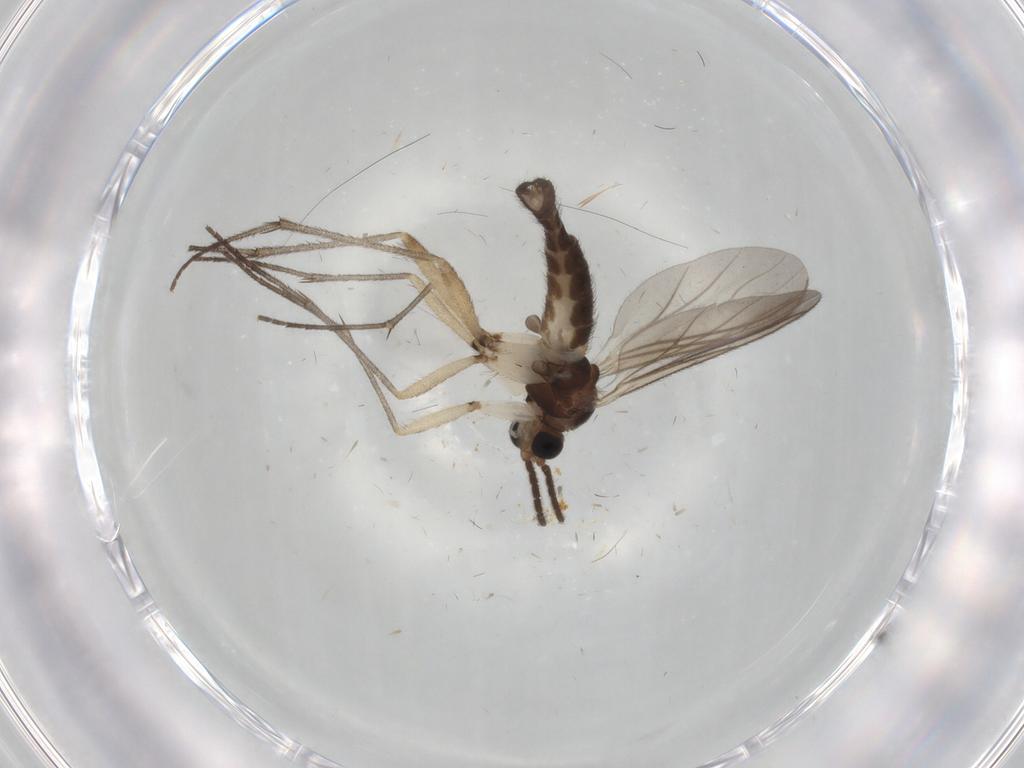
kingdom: Animalia
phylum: Arthropoda
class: Insecta
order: Diptera
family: Sciaridae
